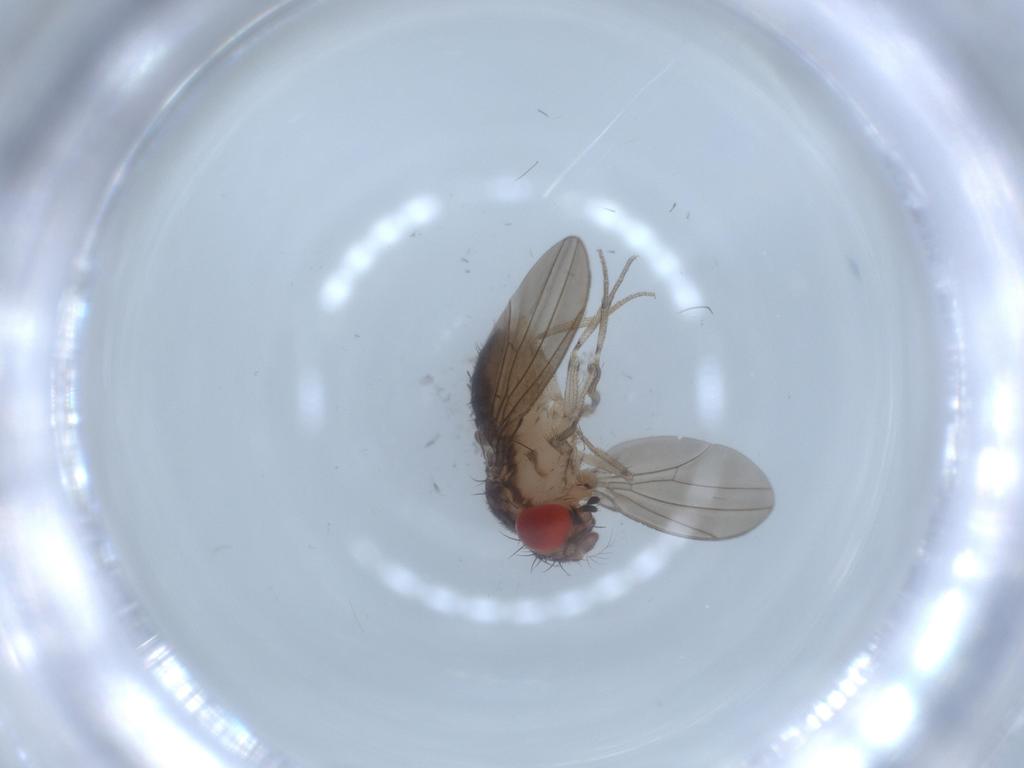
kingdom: Animalia
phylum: Arthropoda
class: Insecta
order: Diptera
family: Drosophilidae
